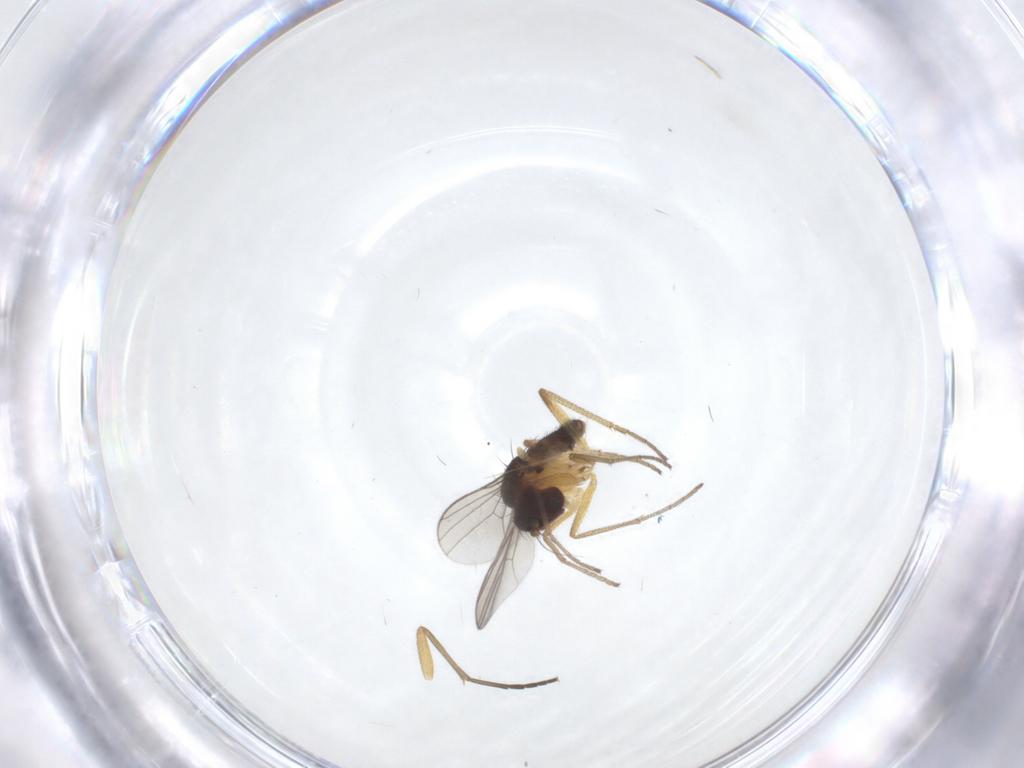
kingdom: Animalia
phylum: Arthropoda
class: Insecta
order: Diptera
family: Dolichopodidae
